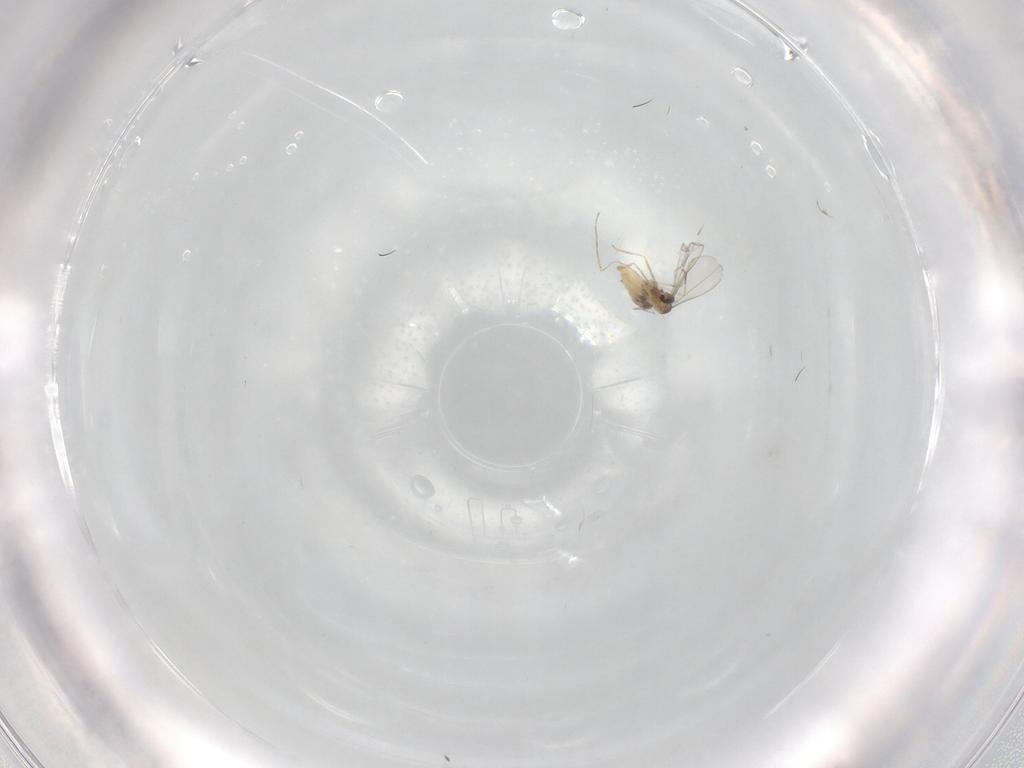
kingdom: Animalia
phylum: Arthropoda
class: Insecta
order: Diptera
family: Cecidomyiidae
